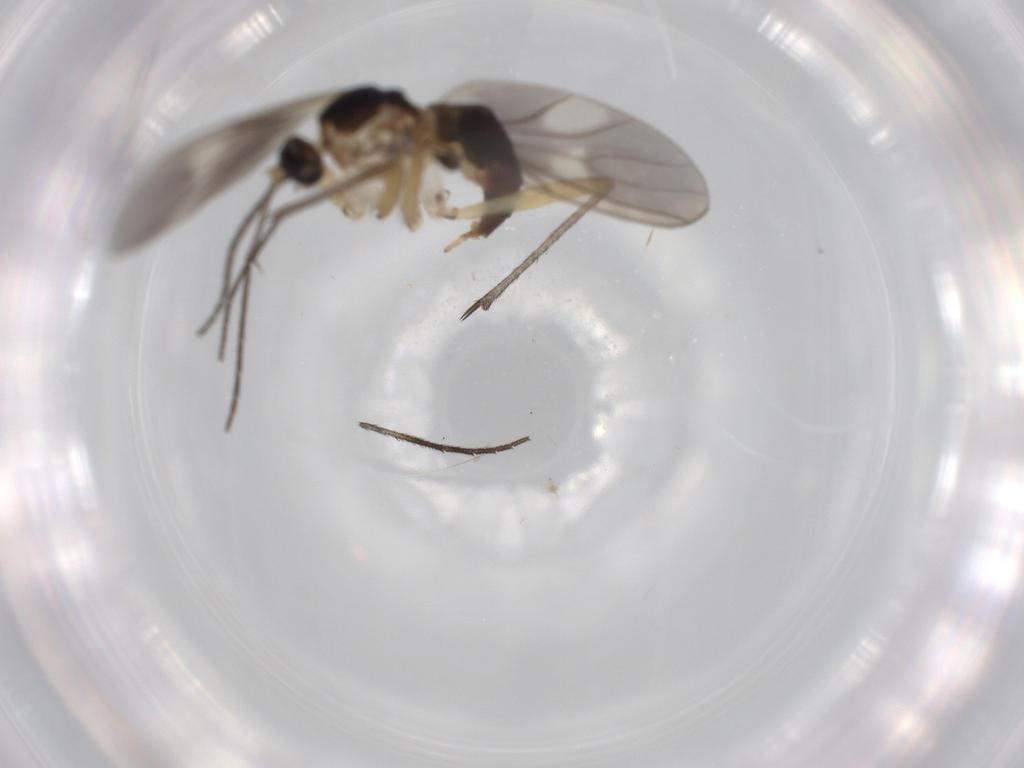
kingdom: Animalia
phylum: Arthropoda
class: Insecta
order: Diptera
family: Sciaridae
